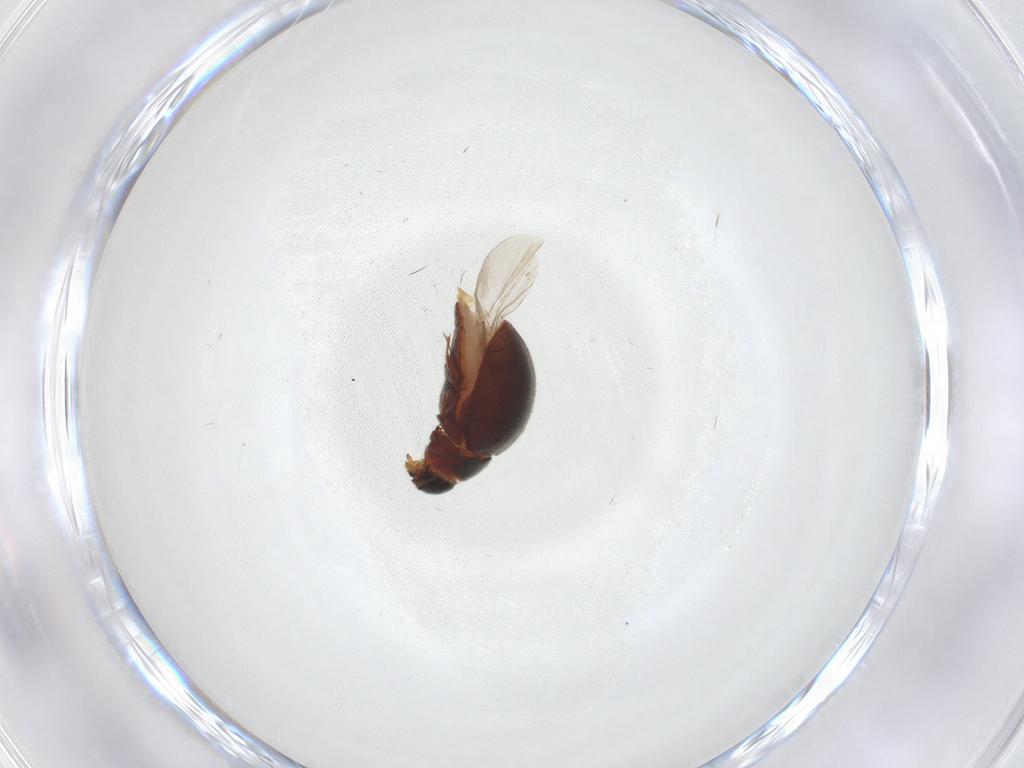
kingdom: Animalia
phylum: Arthropoda
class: Insecta
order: Coleoptera
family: Limnichidae
